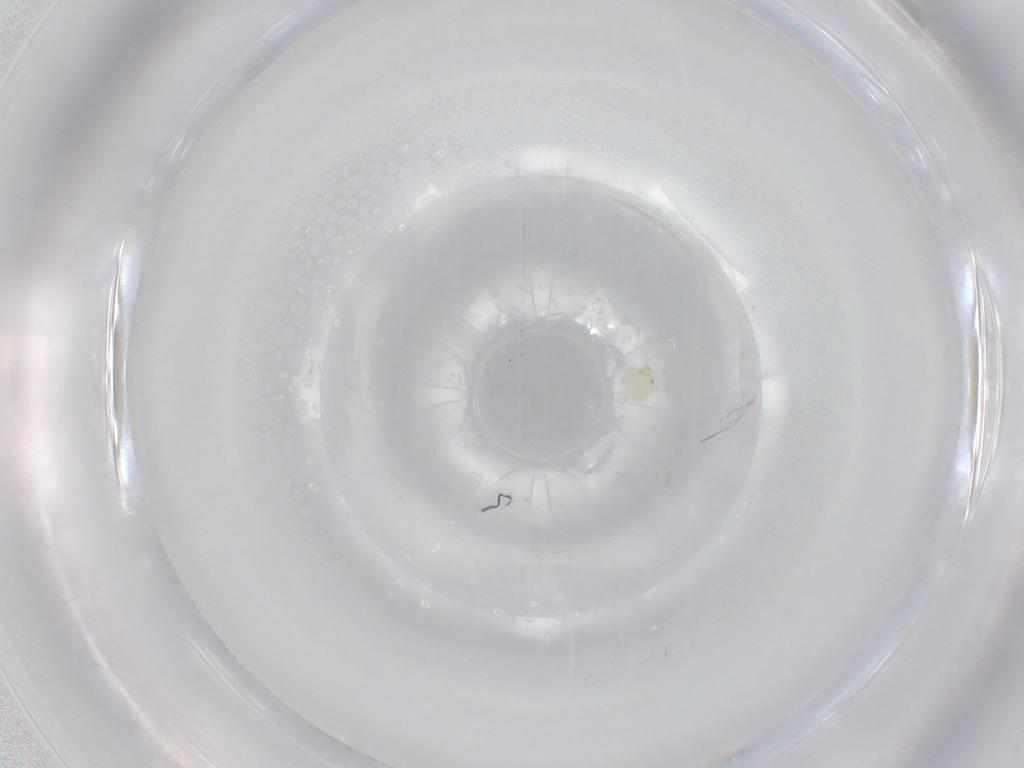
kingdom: Animalia
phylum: Arthropoda
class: Arachnida
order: Trombidiformes
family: Hydryphantidae
